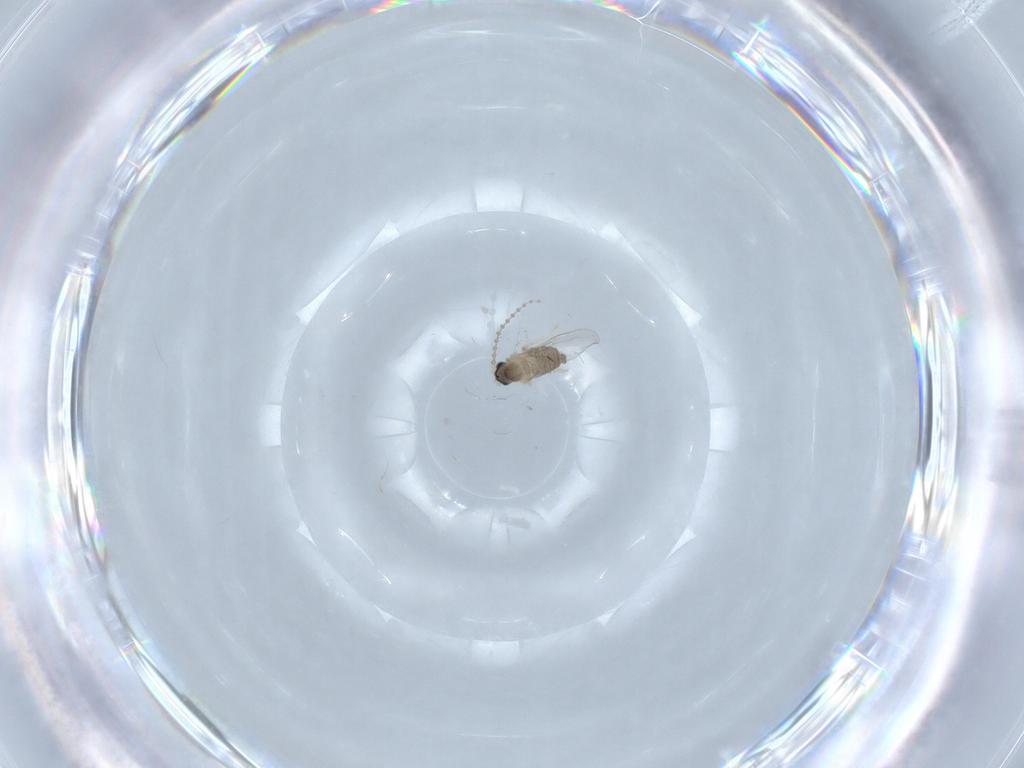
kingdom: Animalia
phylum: Arthropoda
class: Insecta
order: Diptera
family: Cecidomyiidae
